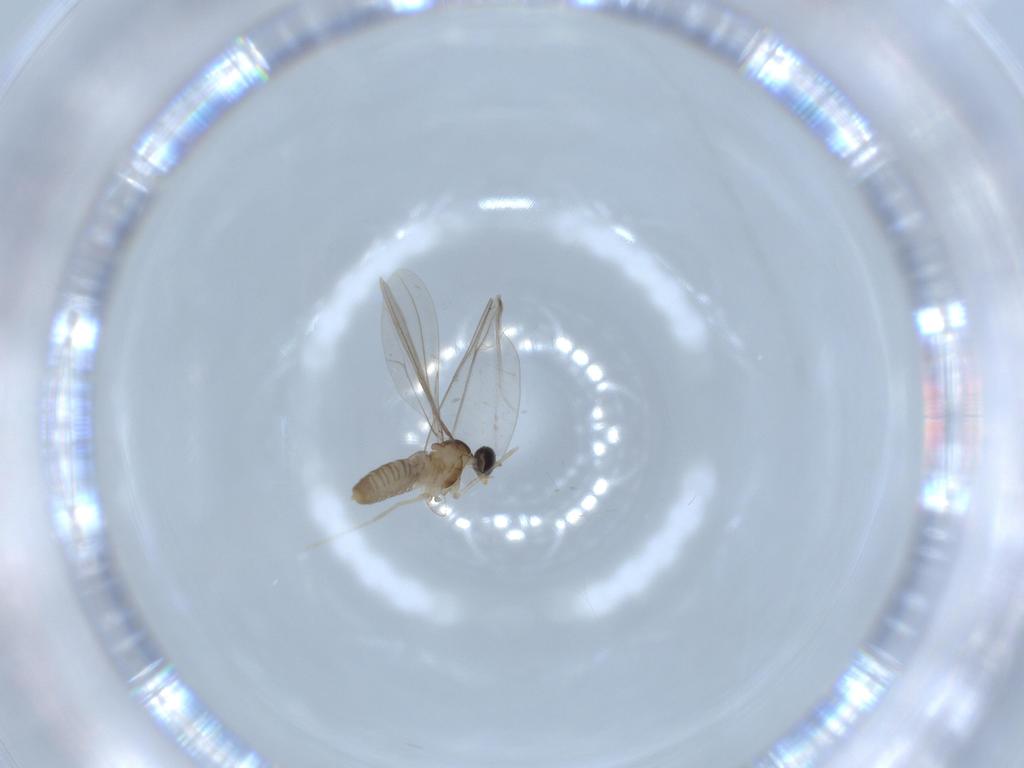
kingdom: Animalia
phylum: Arthropoda
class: Insecta
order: Diptera
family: Cecidomyiidae
